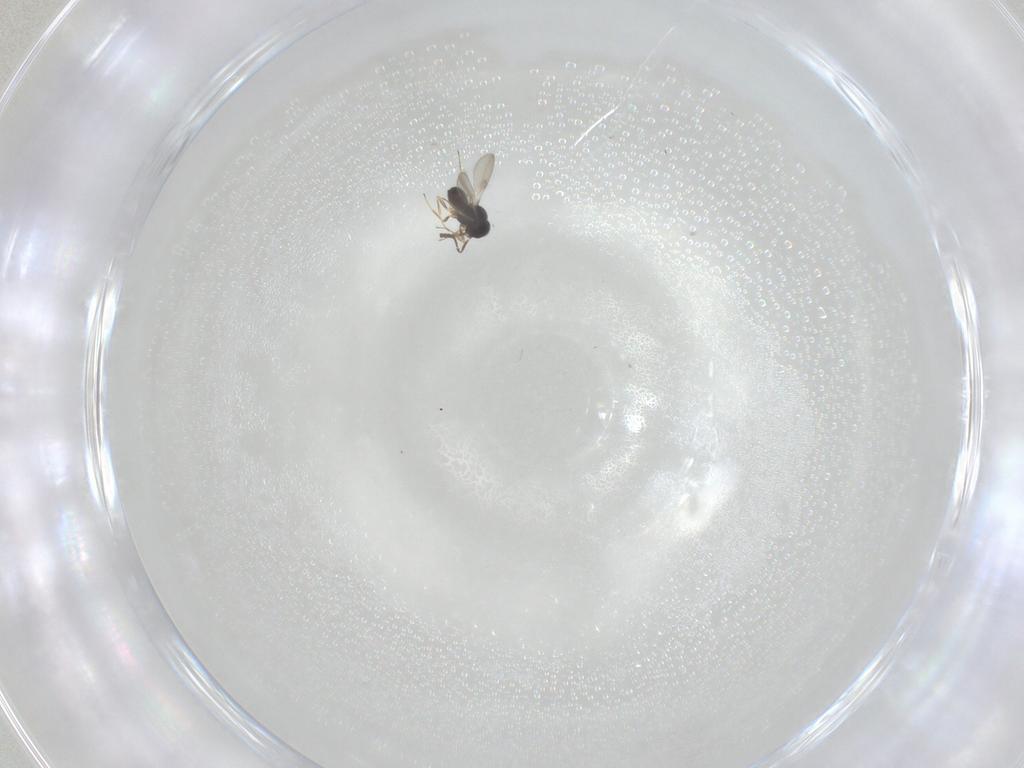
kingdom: Animalia
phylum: Arthropoda
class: Insecta
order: Hymenoptera
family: Scelionidae
